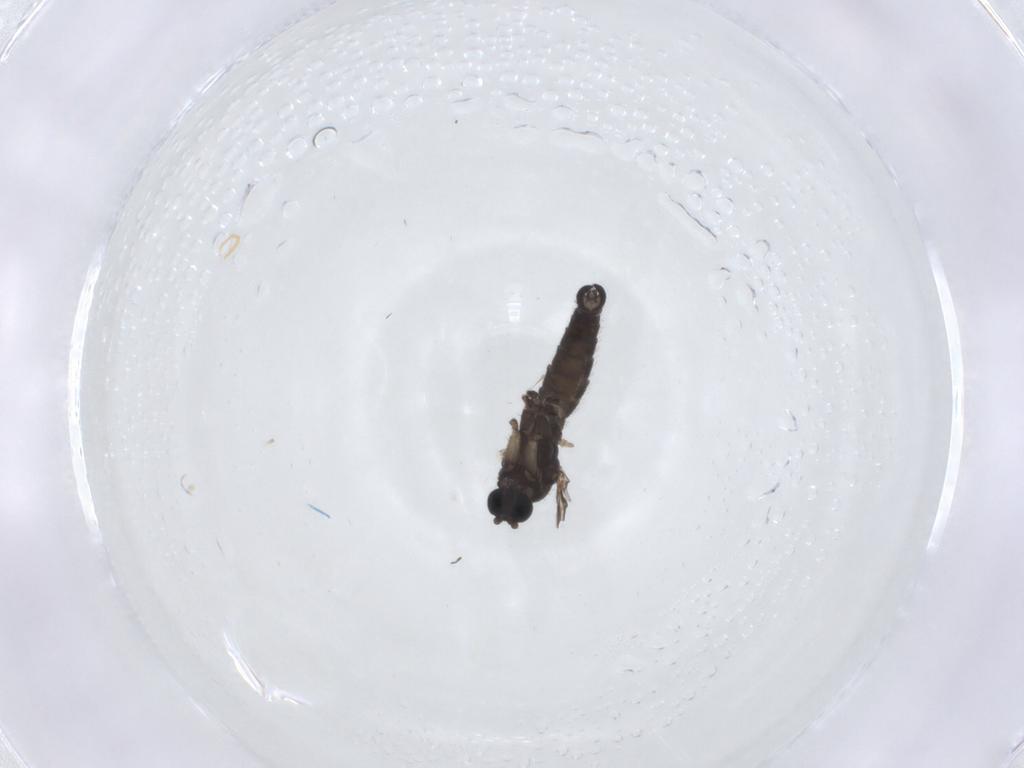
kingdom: Animalia
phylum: Arthropoda
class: Insecta
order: Diptera
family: Sciaridae
